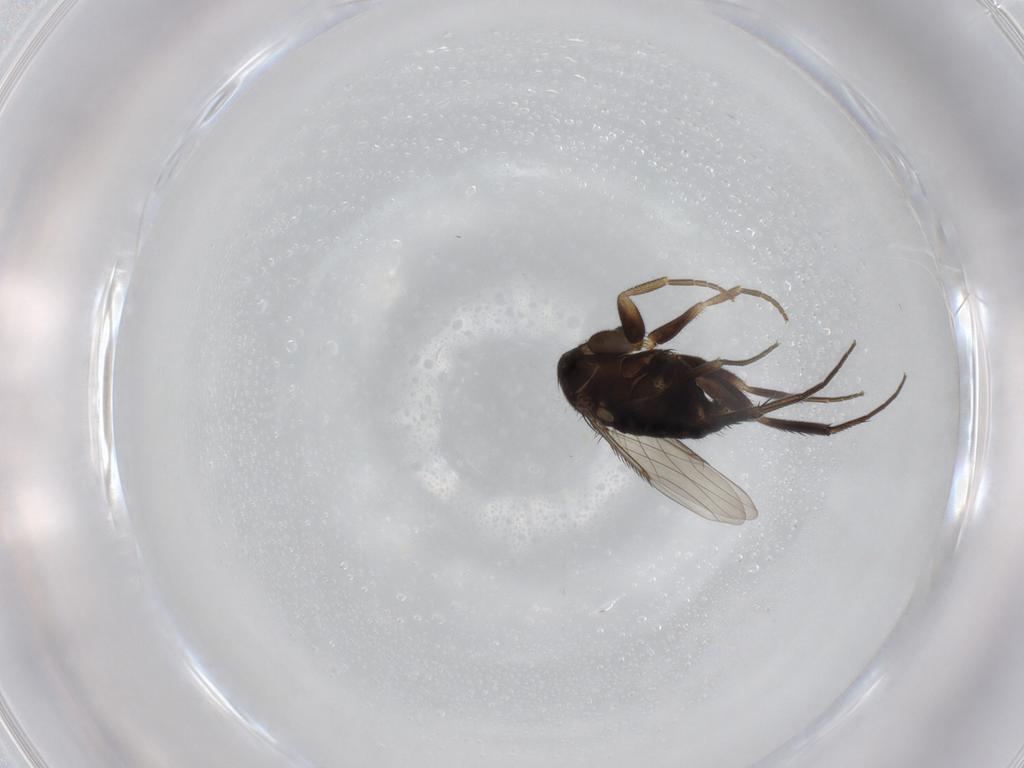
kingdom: Animalia
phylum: Arthropoda
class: Insecta
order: Diptera
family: Phoridae
